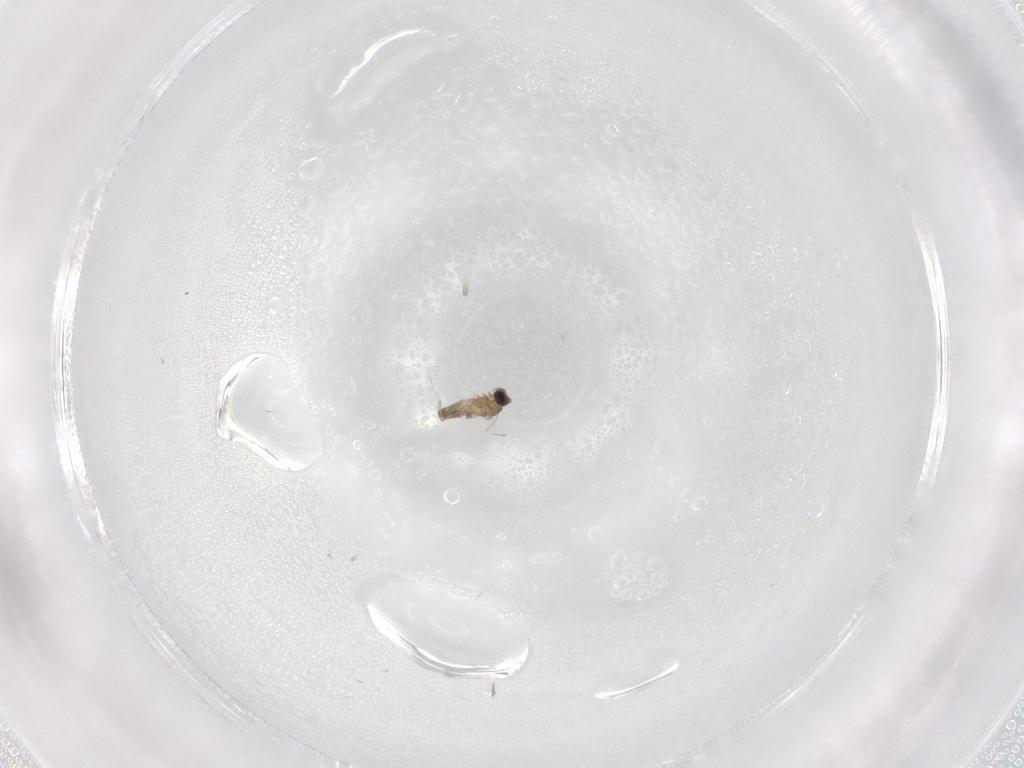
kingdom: Animalia
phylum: Arthropoda
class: Insecta
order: Diptera
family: Cecidomyiidae
